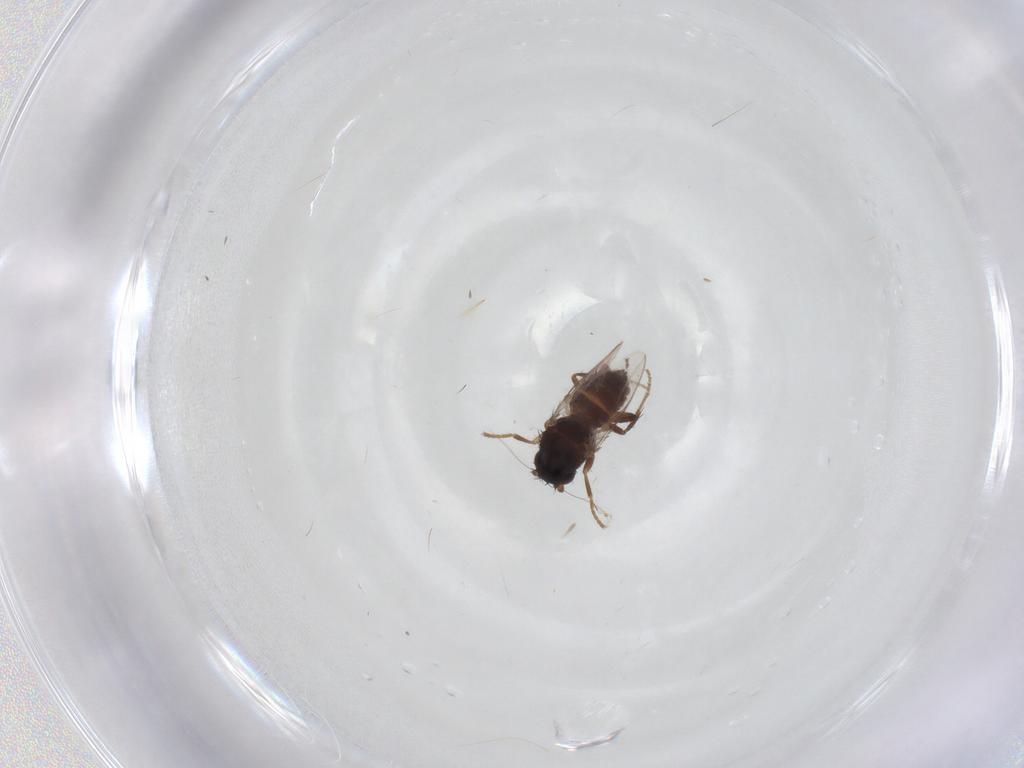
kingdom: Animalia
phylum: Arthropoda
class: Insecta
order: Diptera
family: Sphaeroceridae
